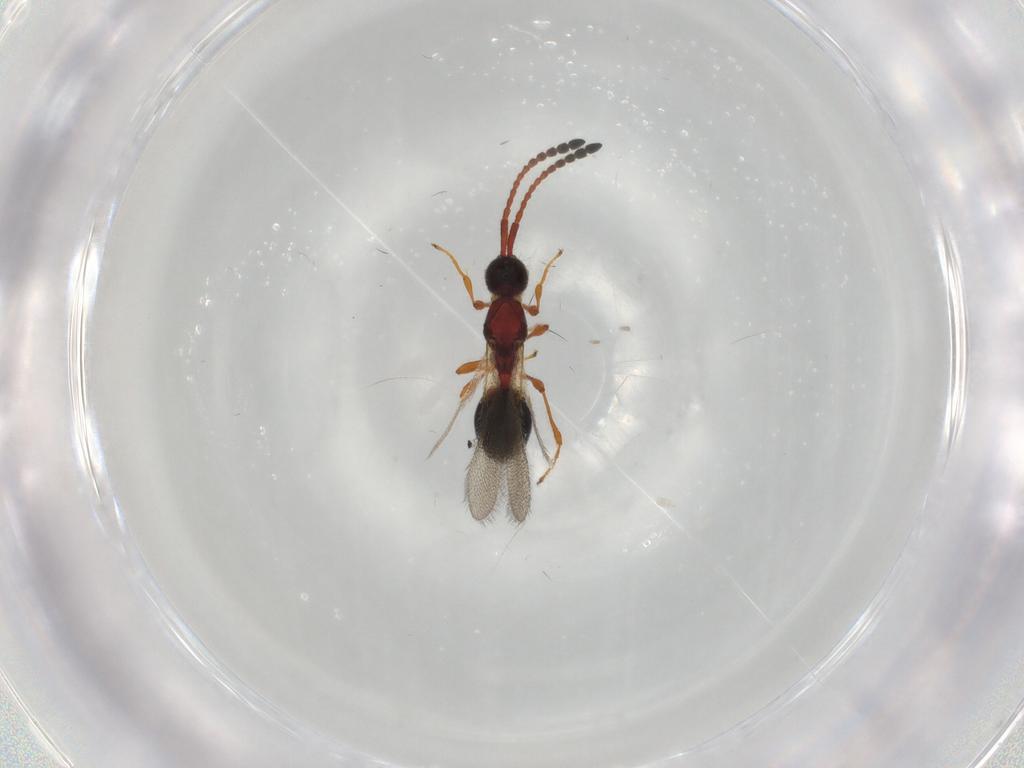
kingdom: Animalia
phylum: Arthropoda
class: Insecta
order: Hymenoptera
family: Diapriidae
